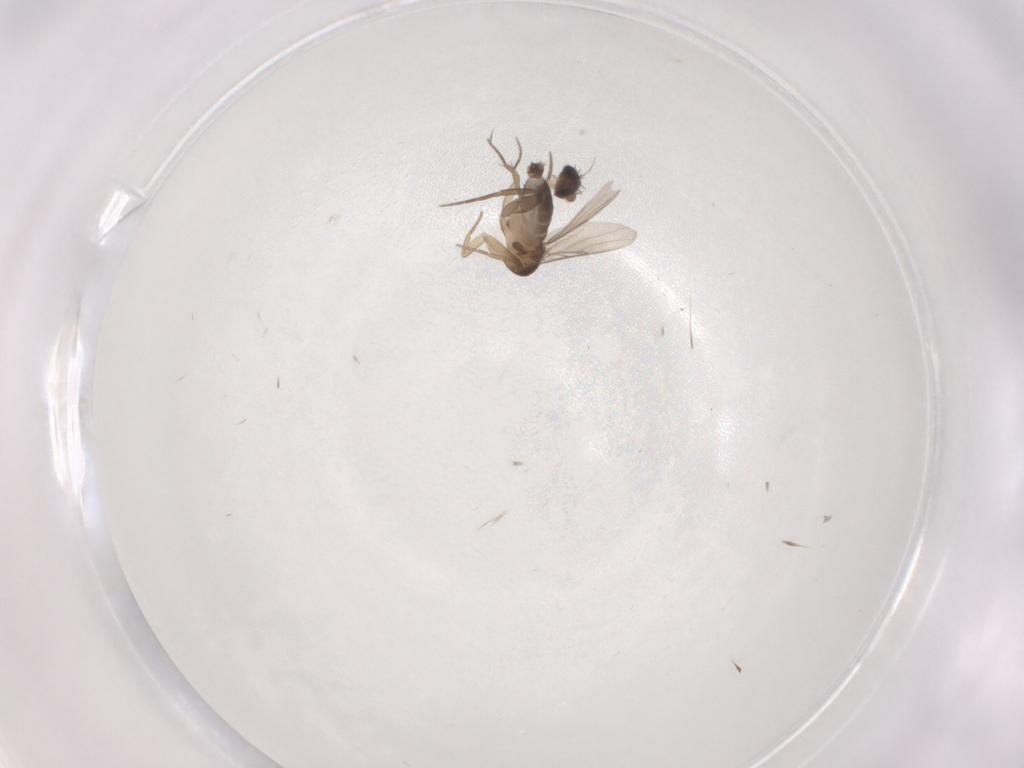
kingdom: Animalia
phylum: Arthropoda
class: Insecta
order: Diptera
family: Phoridae
